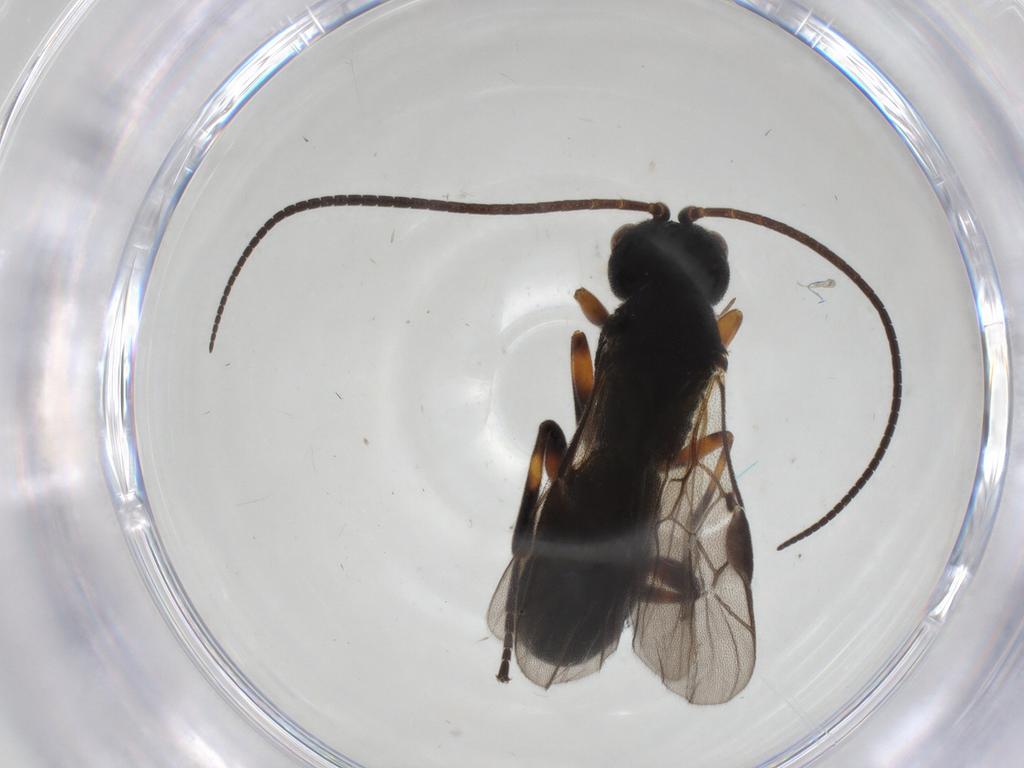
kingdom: Animalia
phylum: Arthropoda
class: Insecta
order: Hymenoptera
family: Braconidae
